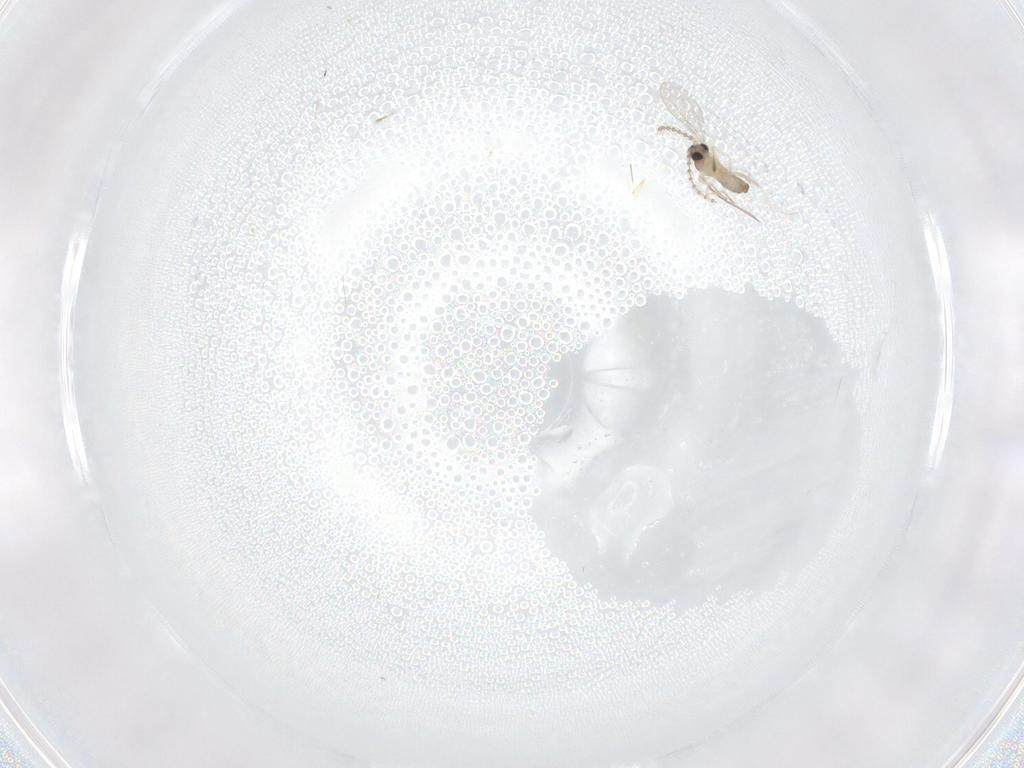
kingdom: Animalia
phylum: Arthropoda
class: Insecta
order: Diptera
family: Cecidomyiidae
